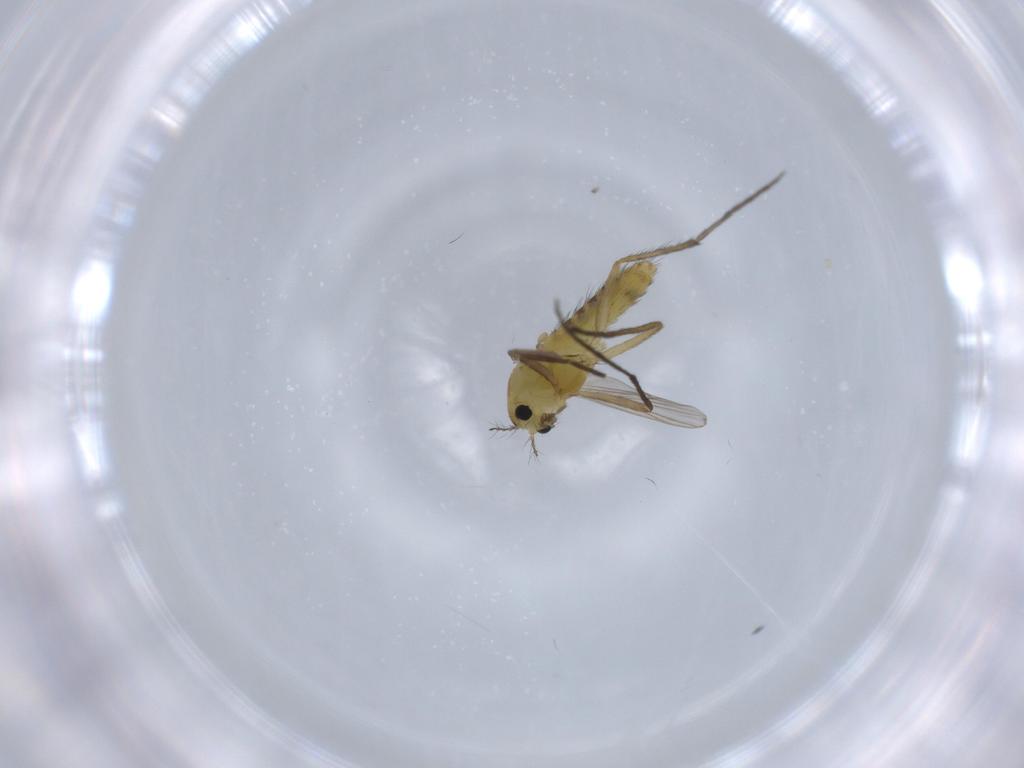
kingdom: Animalia
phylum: Arthropoda
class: Insecta
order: Diptera
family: Chironomidae
